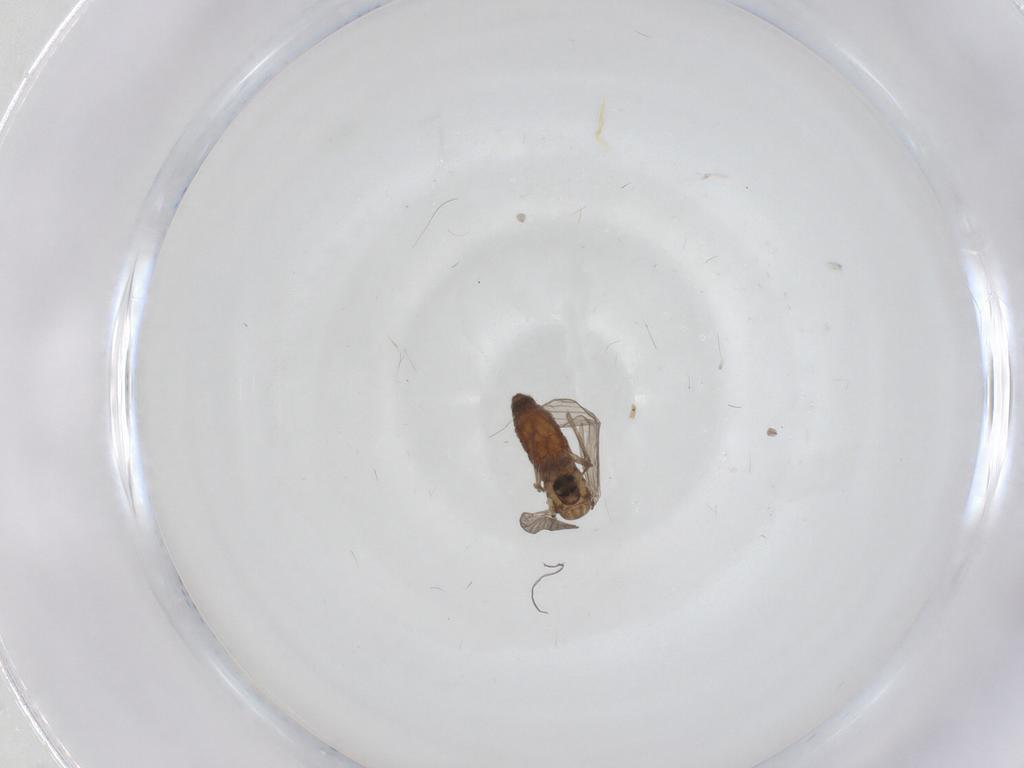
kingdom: Animalia
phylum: Arthropoda
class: Insecta
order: Diptera
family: Psychodidae
